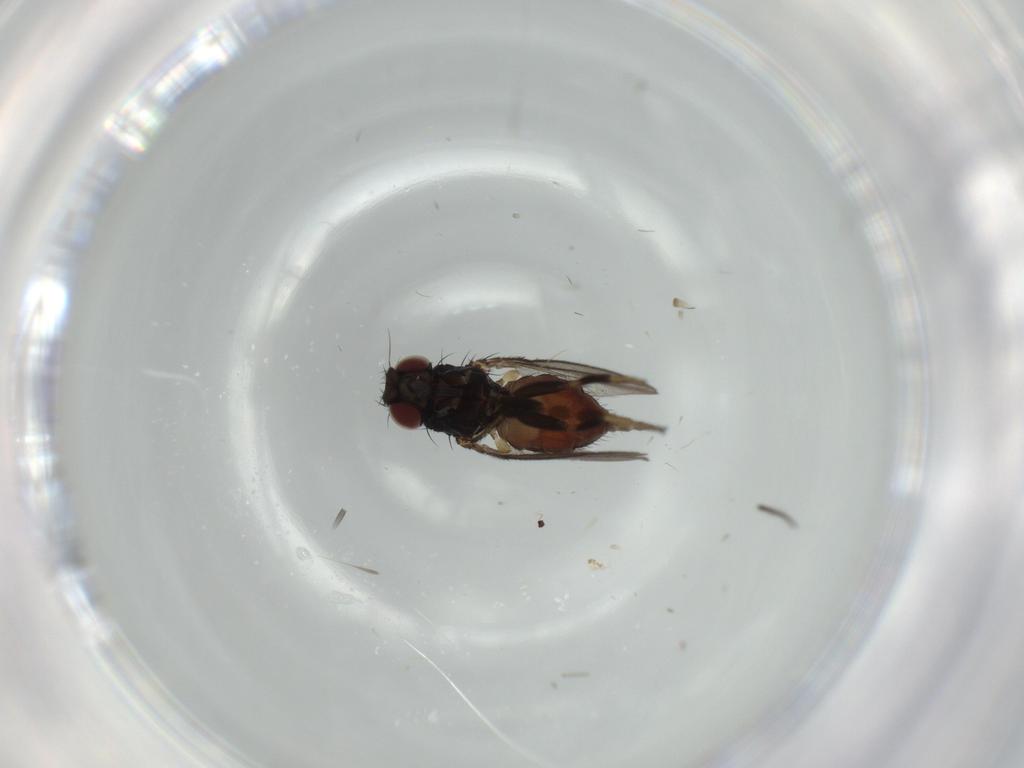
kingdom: Animalia
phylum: Arthropoda
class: Insecta
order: Diptera
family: Milichiidae
